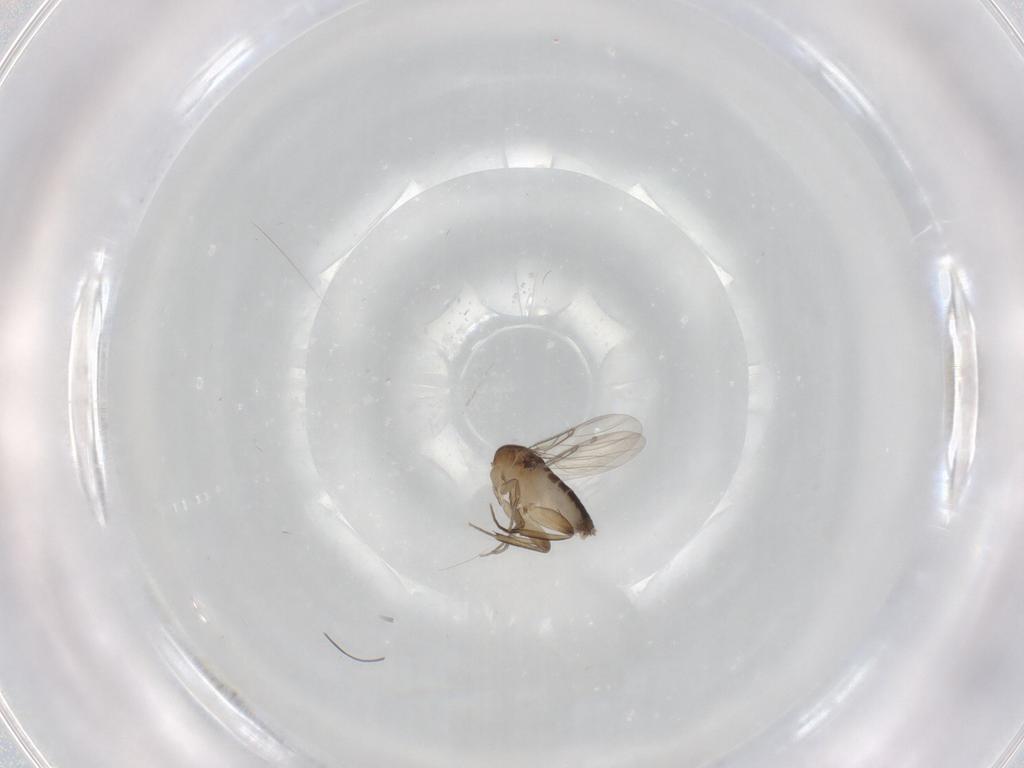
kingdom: Animalia
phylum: Arthropoda
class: Insecta
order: Diptera
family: Phoridae
